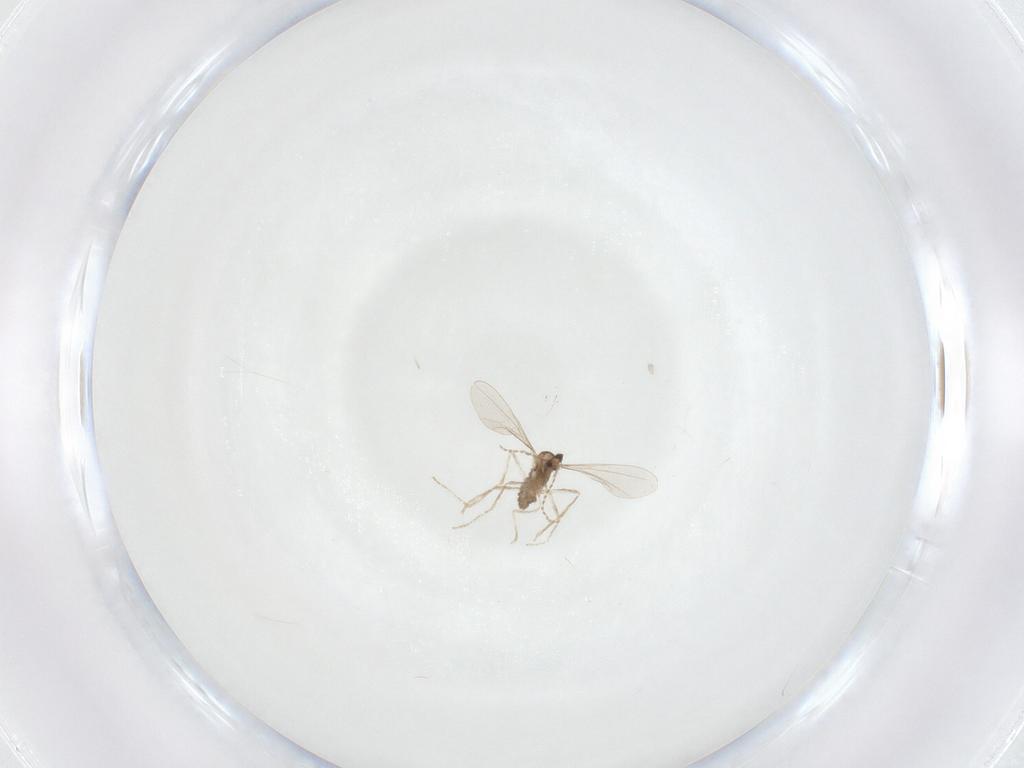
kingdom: Animalia
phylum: Arthropoda
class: Insecta
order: Diptera
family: Cecidomyiidae
